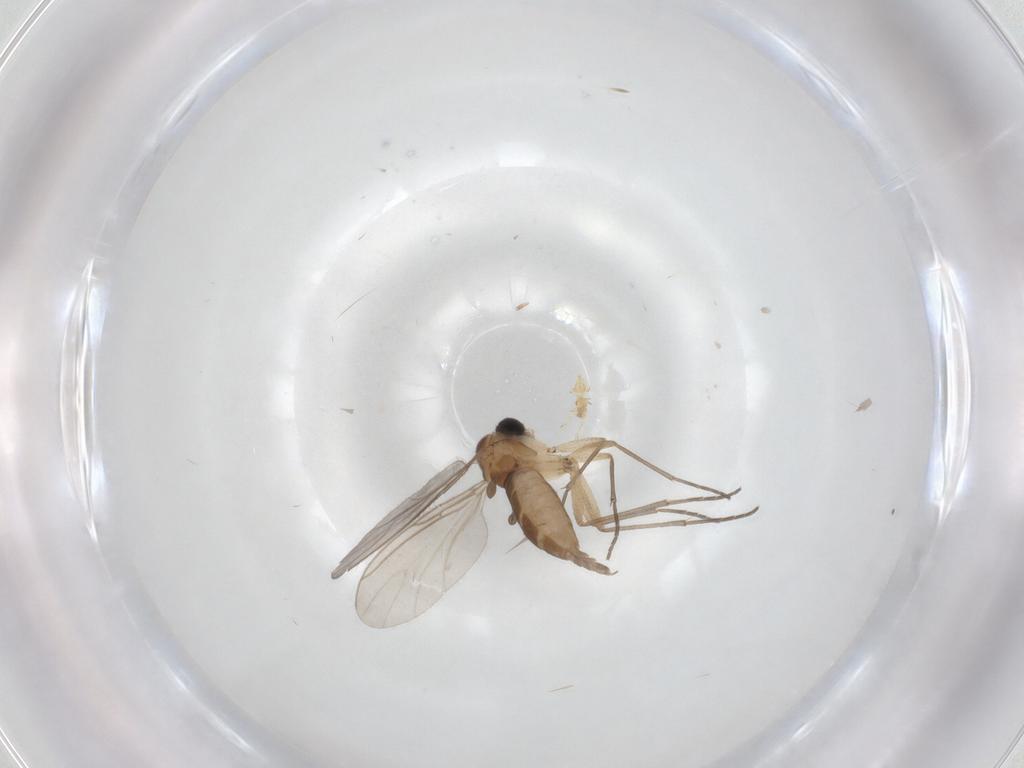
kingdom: Animalia
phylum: Arthropoda
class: Insecta
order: Diptera
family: Sciaridae
